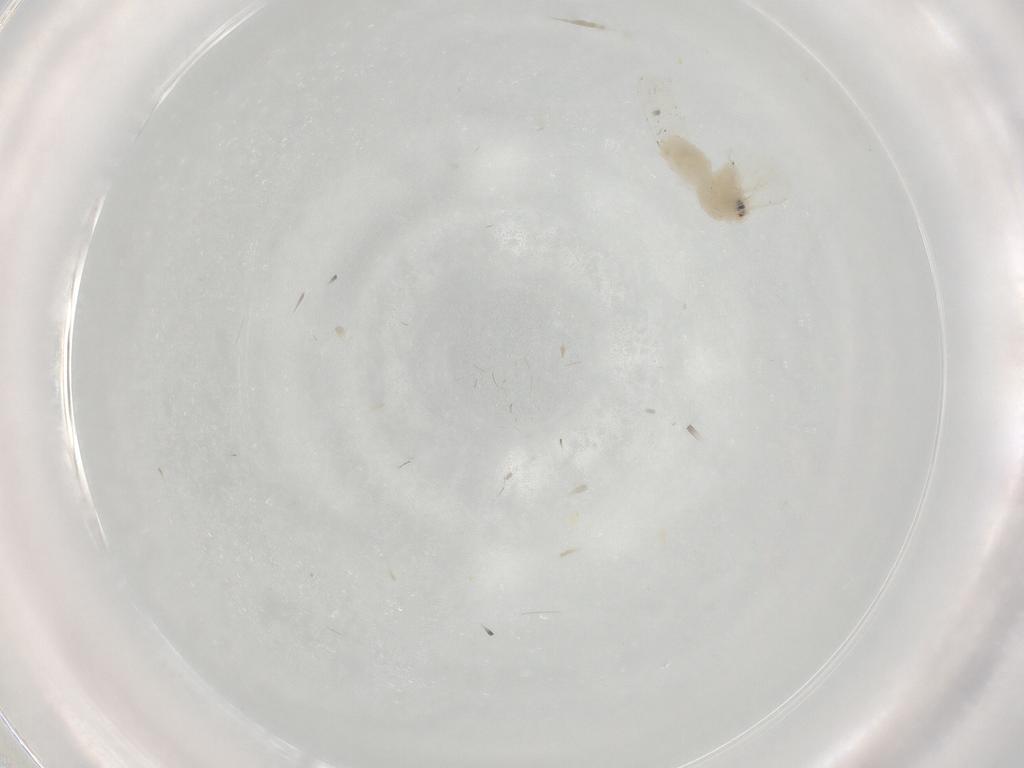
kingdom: Animalia
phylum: Arthropoda
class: Insecta
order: Hemiptera
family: Aleyrodidae
